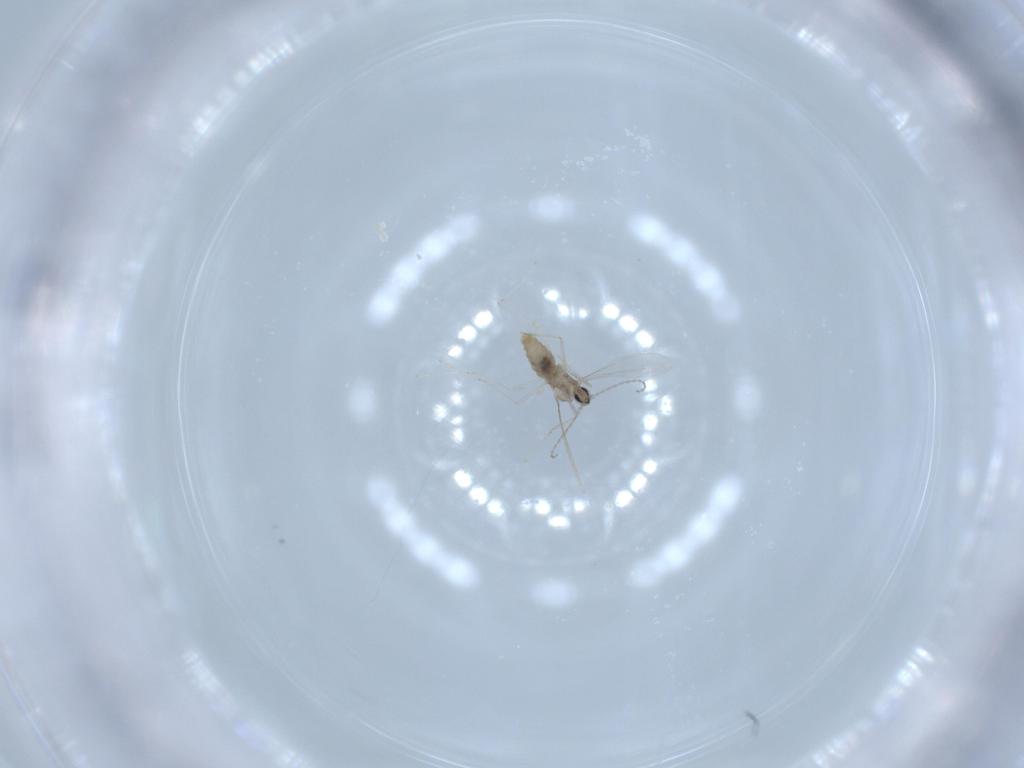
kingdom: Animalia
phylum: Arthropoda
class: Insecta
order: Diptera
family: Cecidomyiidae
